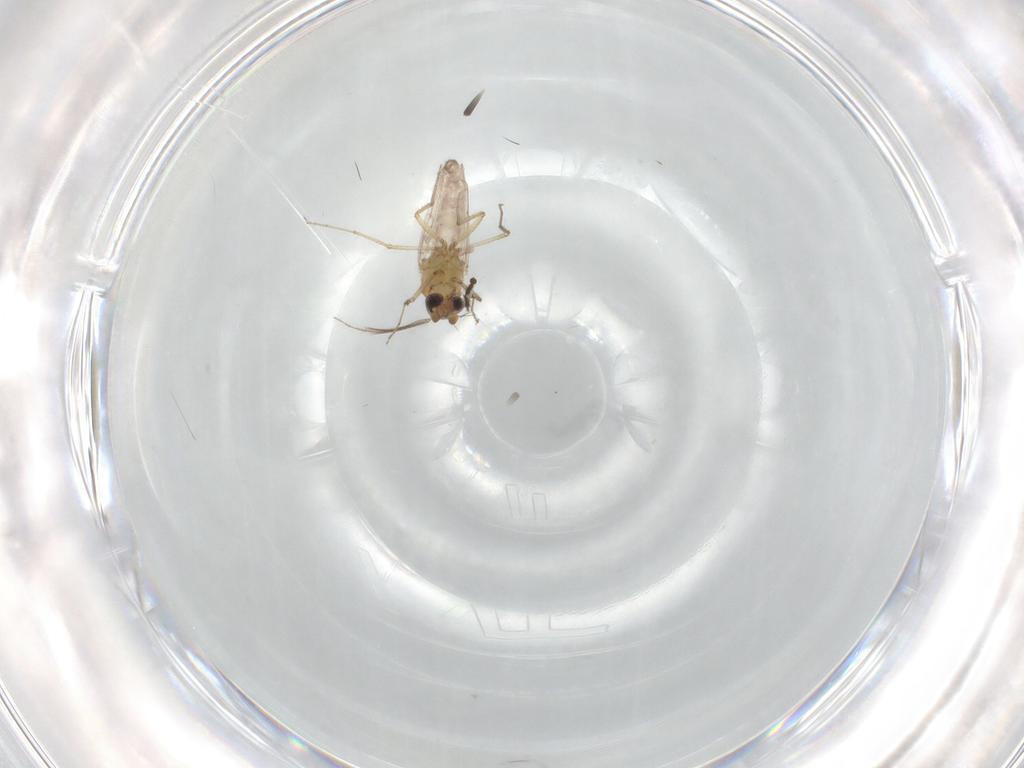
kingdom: Animalia
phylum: Arthropoda
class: Insecta
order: Diptera
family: Ceratopogonidae
